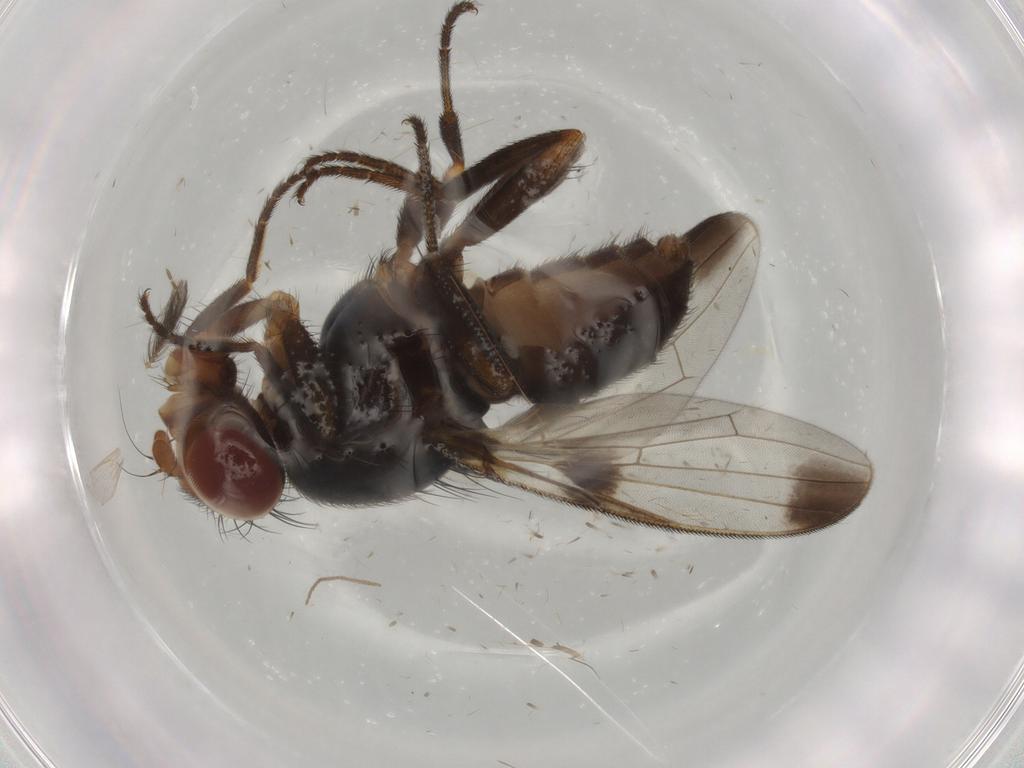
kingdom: Animalia
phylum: Arthropoda
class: Insecta
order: Diptera
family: Ulidiidae
